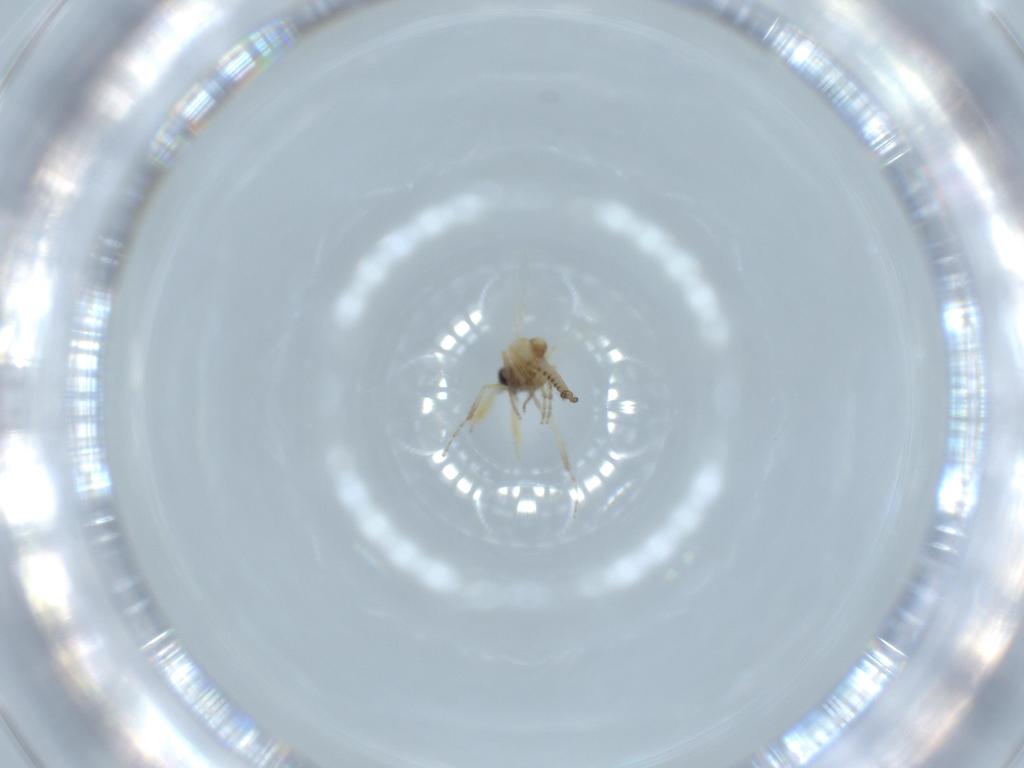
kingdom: Animalia
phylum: Arthropoda
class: Insecta
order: Diptera
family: Ceratopogonidae
